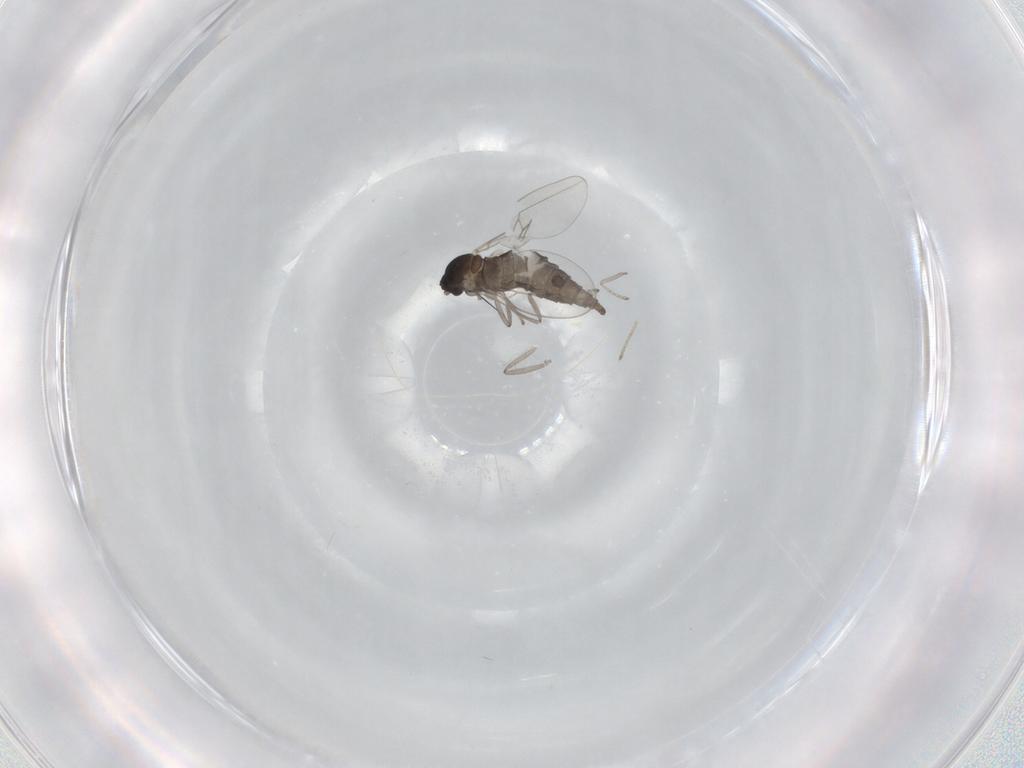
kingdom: Animalia
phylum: Arthropoda
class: Insecta
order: Diptera
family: Cecidomyiidae
